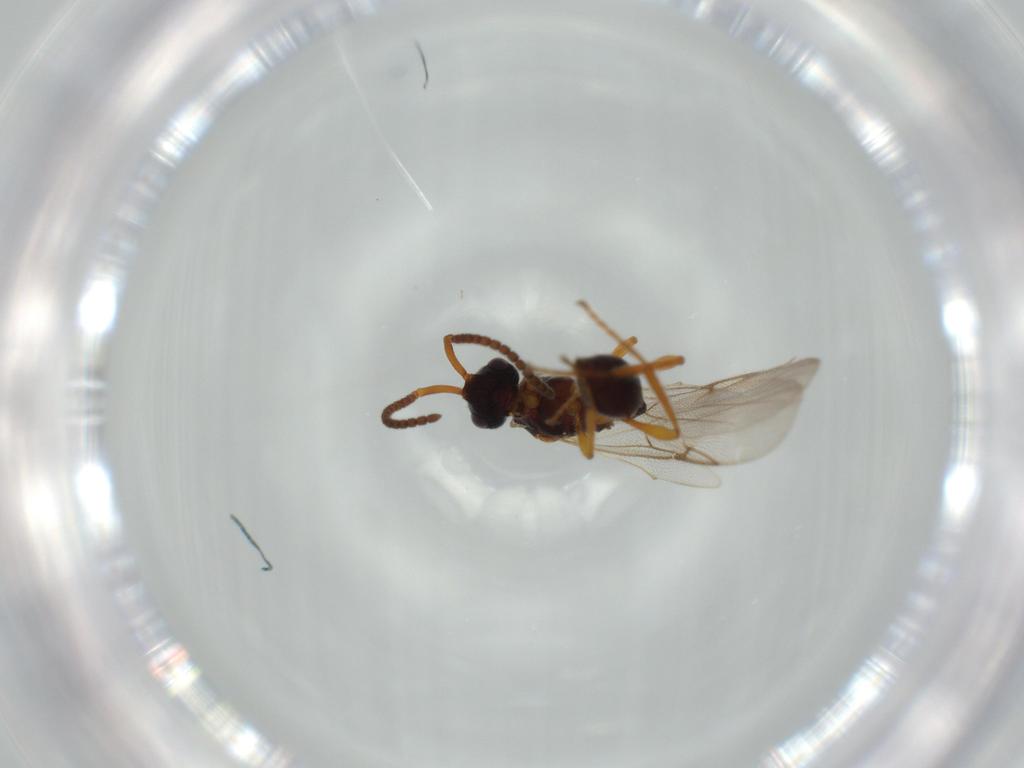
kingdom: Animalia
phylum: Arthropoda
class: Insecta
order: Hymenoptera
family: Diapriidae
